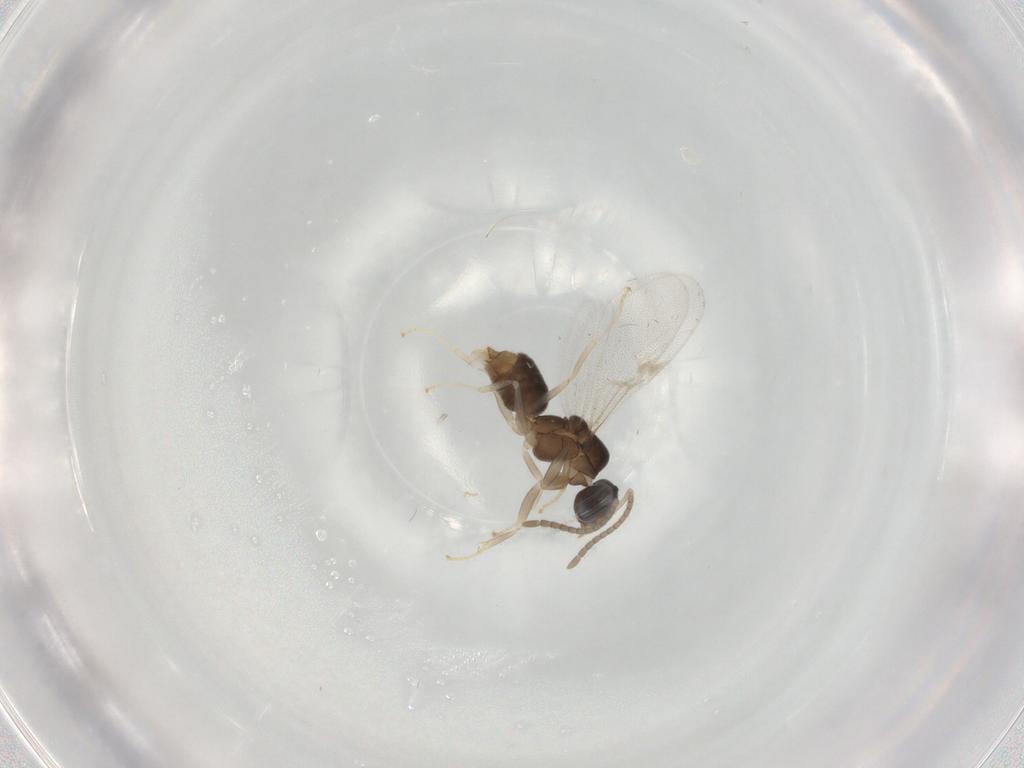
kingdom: Animalia
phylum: Arthropoda
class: Insecta
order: Hymenoptera
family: Formicidae
